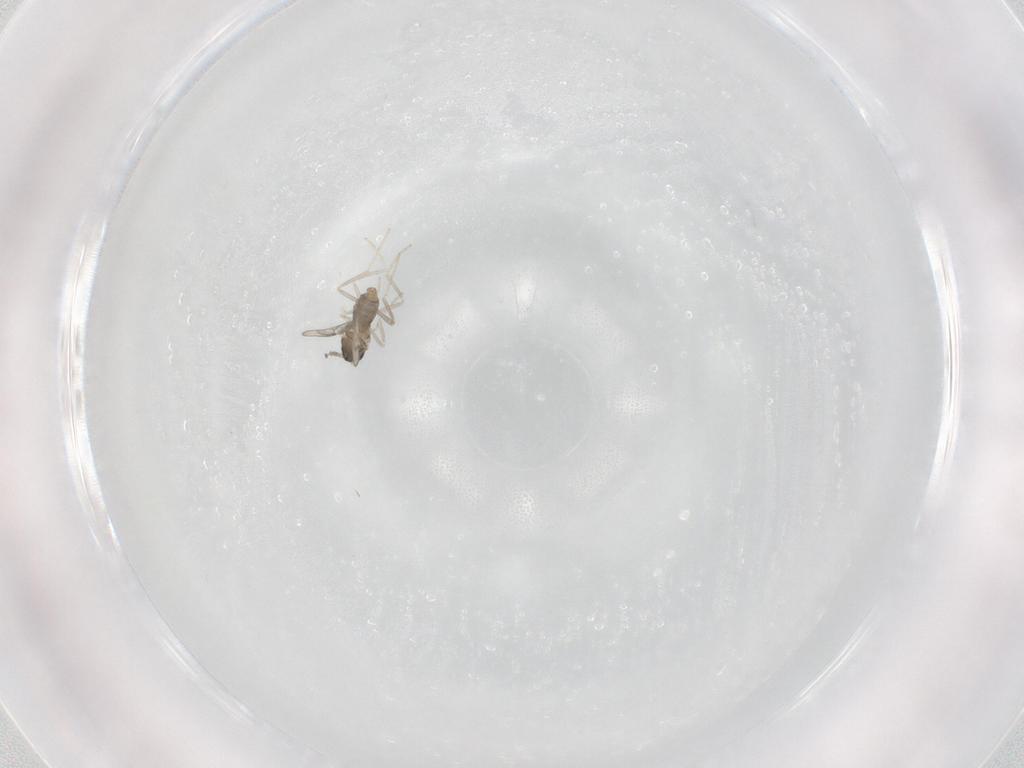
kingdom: Animalia
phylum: Arthropoda
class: Insecta
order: Diptera
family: Cecidomyiidae
